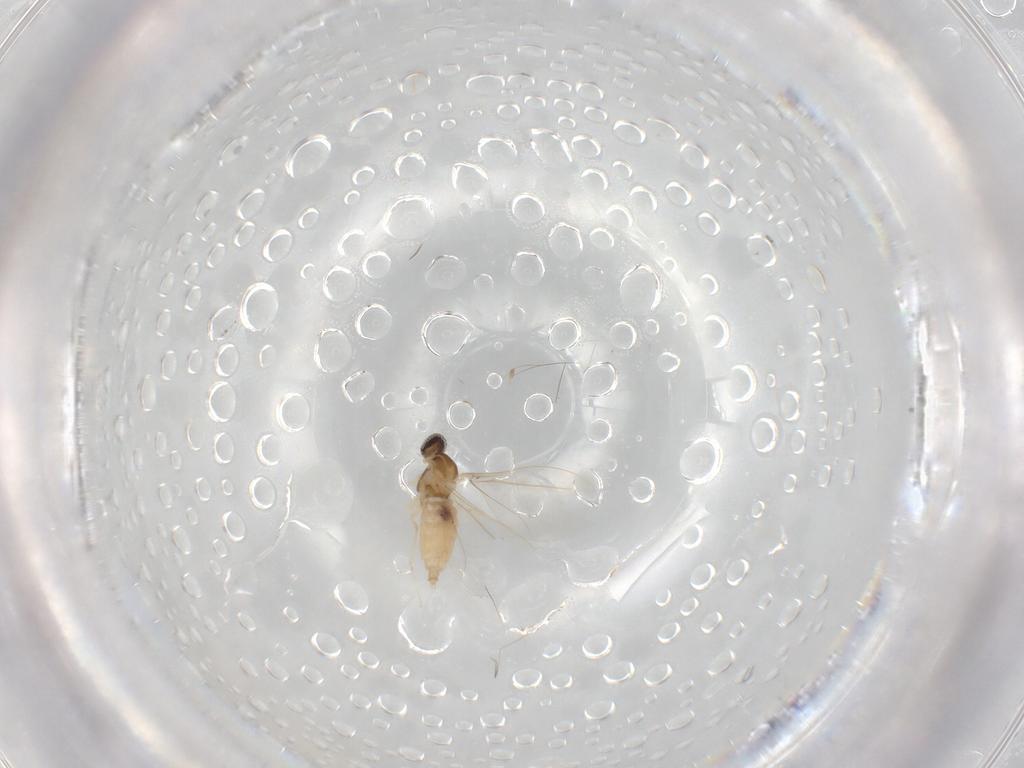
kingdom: Animalia
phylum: Arthropoda
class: Insecta
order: Diptera
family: Cecidomyiidae
